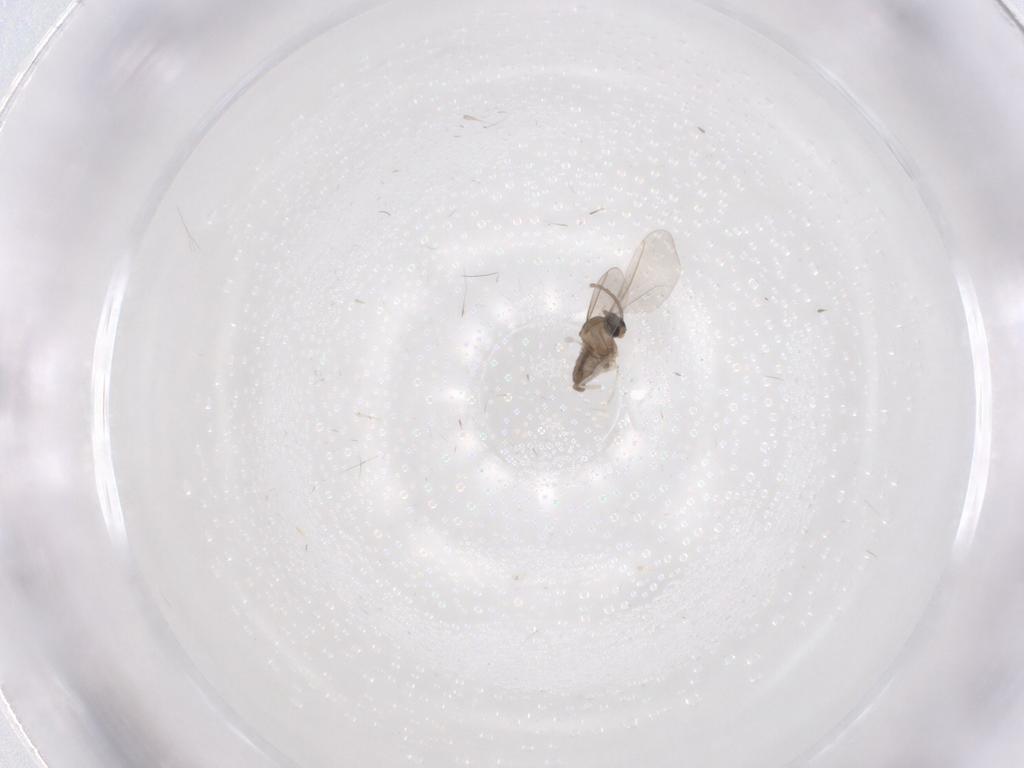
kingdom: Animalia
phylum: Arthropoda
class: Insecta
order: Diptera
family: Cecidomyiidae
